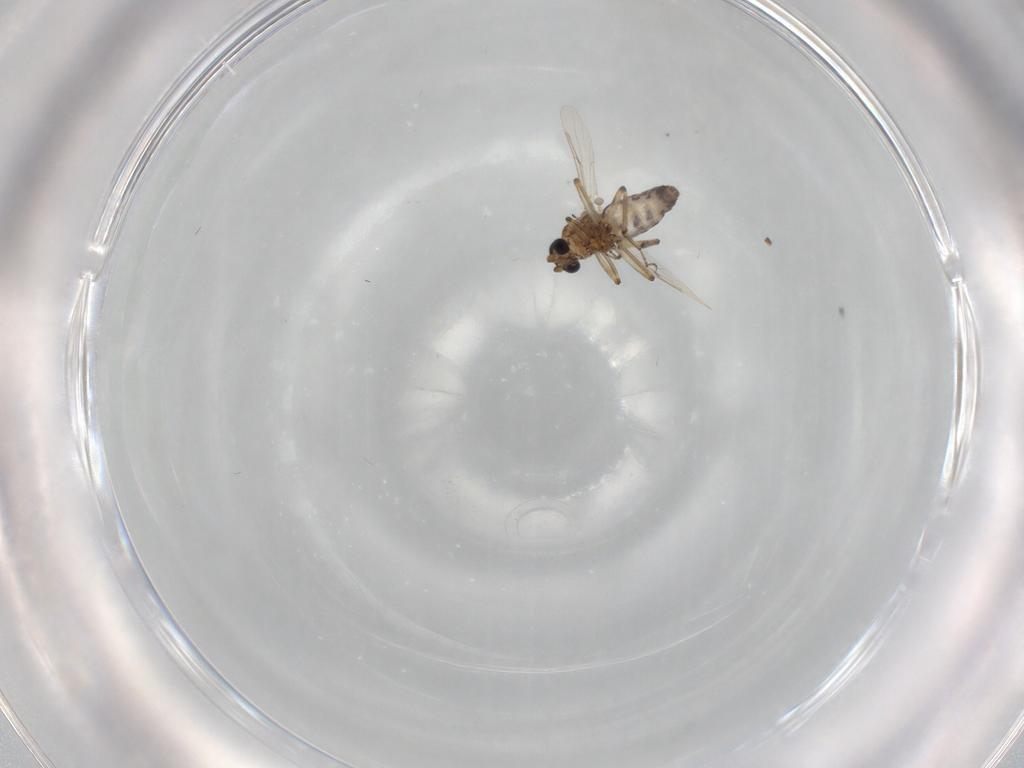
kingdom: Animalia
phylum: Arthropoda
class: Insecta
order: Diptera
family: Ceratopogonidae
